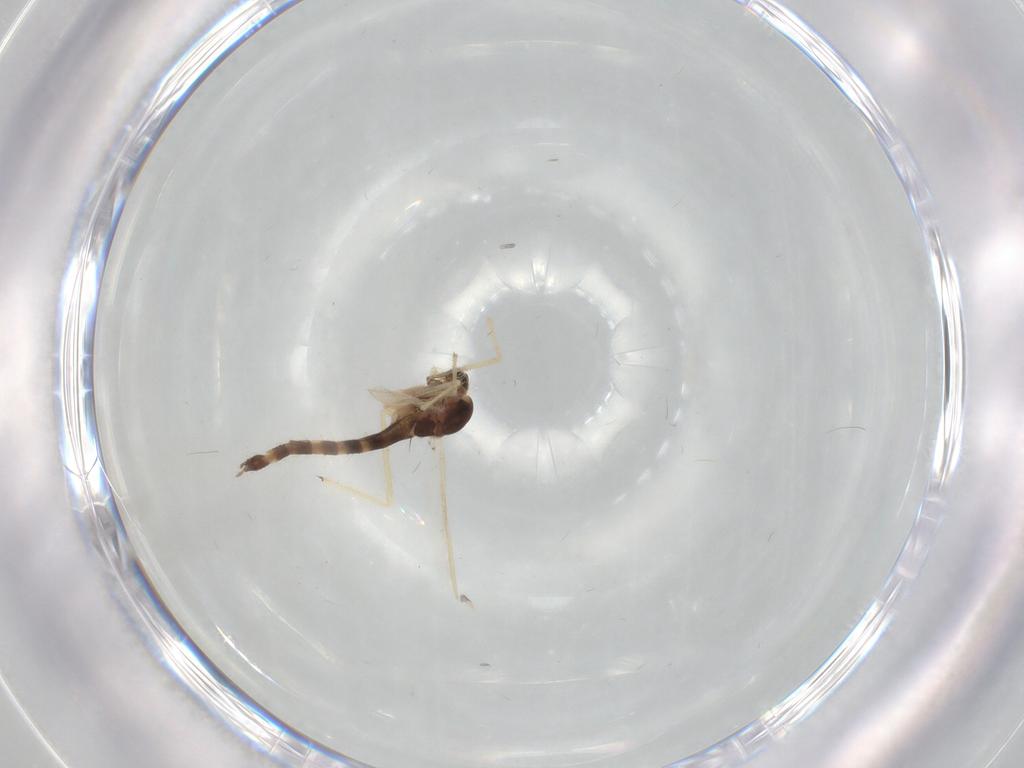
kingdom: Animalia
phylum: Arthropoda
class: Insecta
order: Diptera
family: Chironomidae
